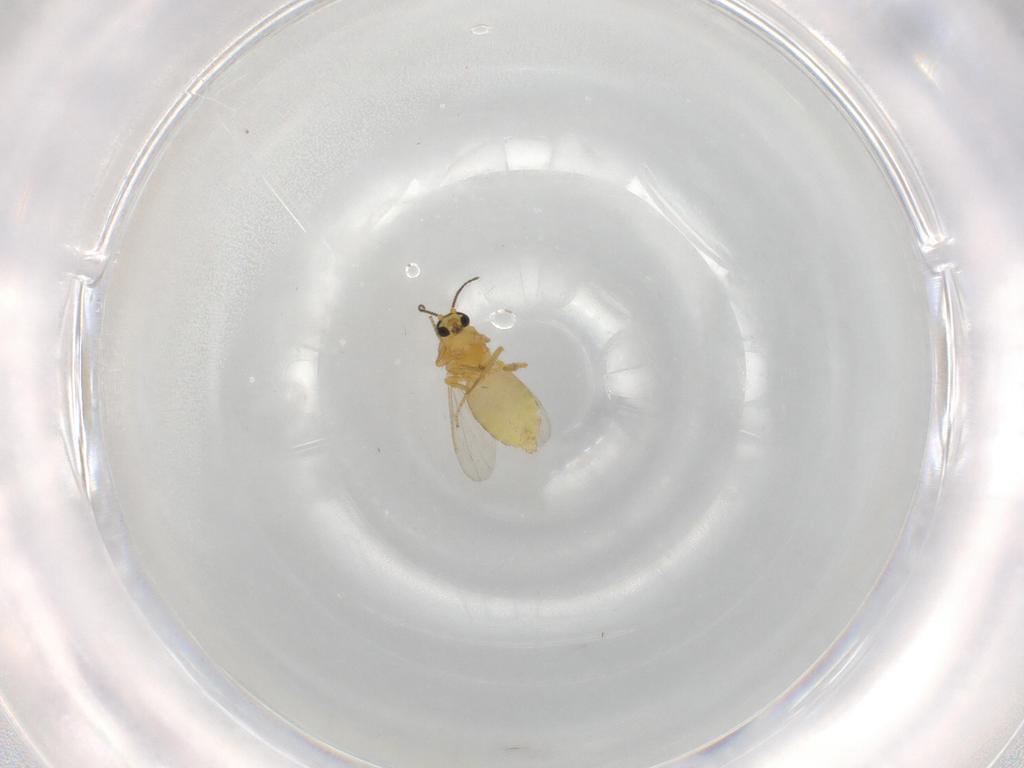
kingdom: Animalia
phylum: Arthropoda
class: Insecta
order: Diptera
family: Ceratopogonidae
